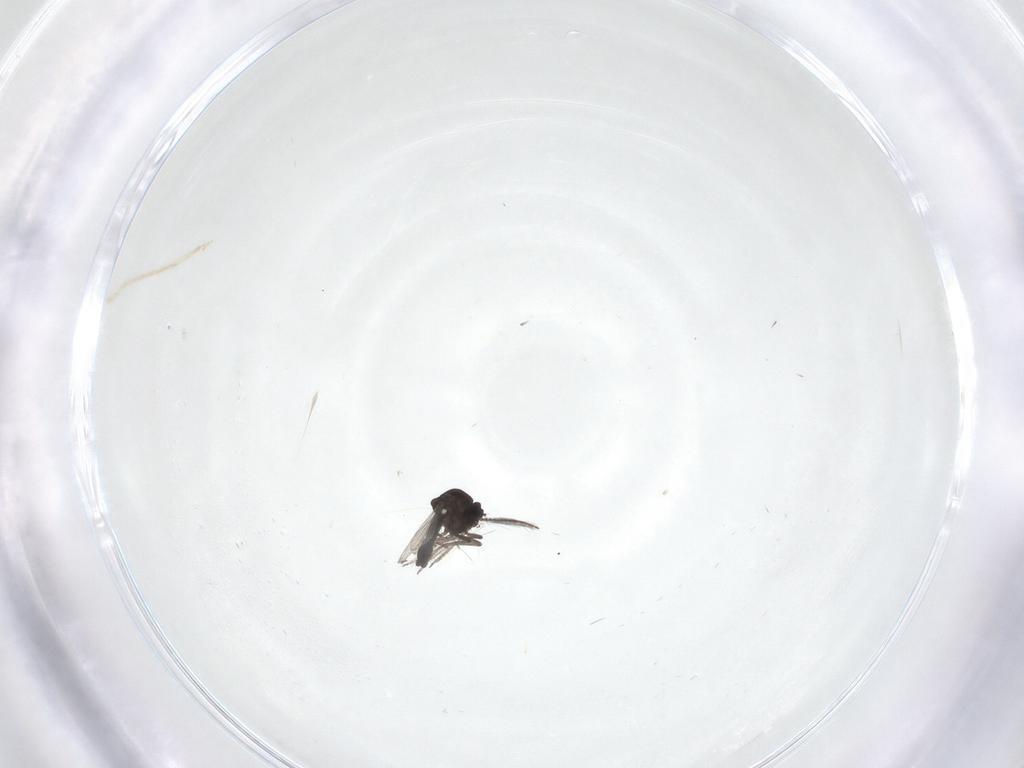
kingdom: Animalia
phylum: Arthropoda
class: Insecta
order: Diptera
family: Ceratopogonidae
